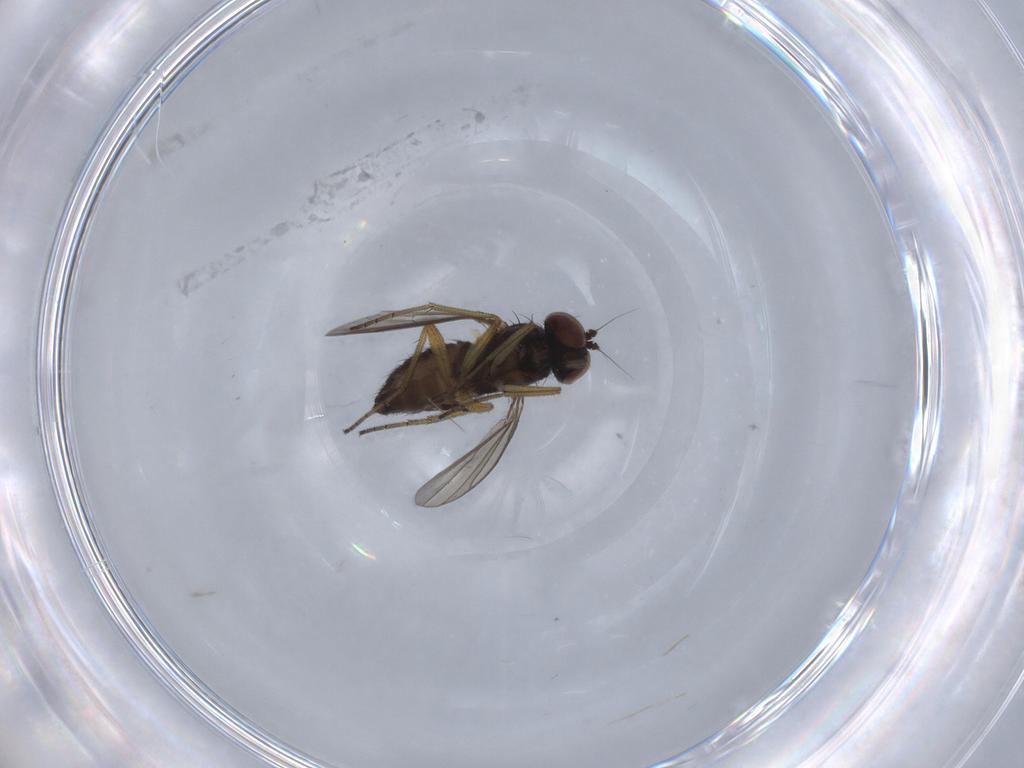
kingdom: Animalia
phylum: Arthropoda
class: Insecta
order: Diptera
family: Dolichopodidae
